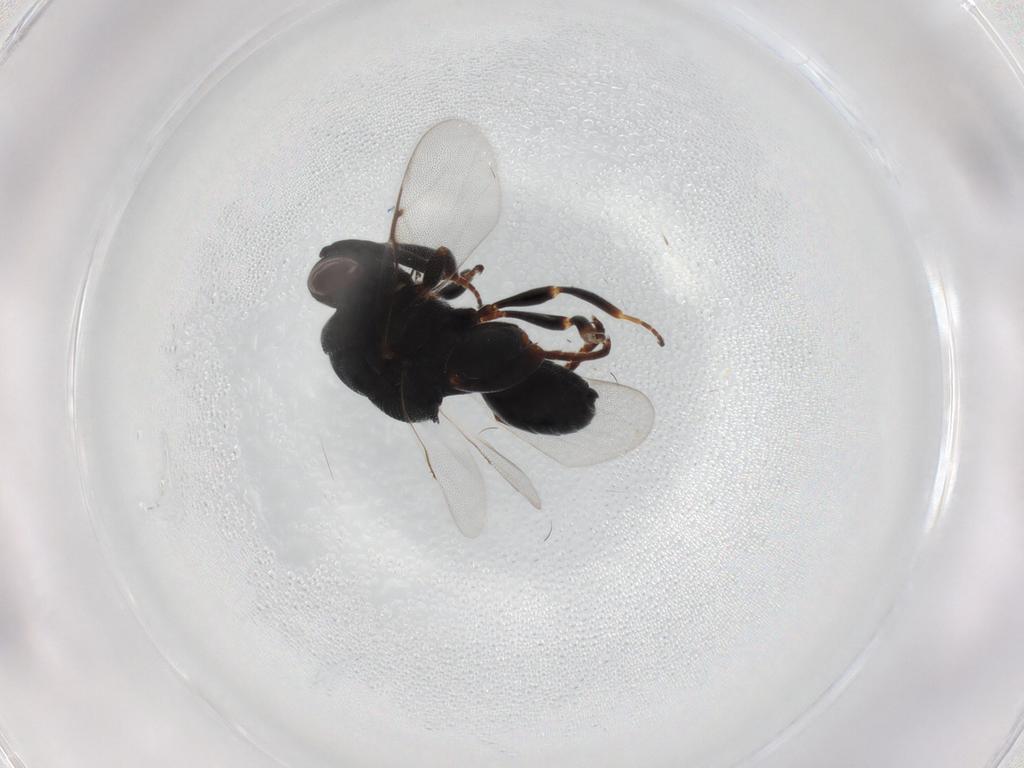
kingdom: Animalia
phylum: Arthropoda
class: Insecta
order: Hymenoptera
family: Chalcididae
